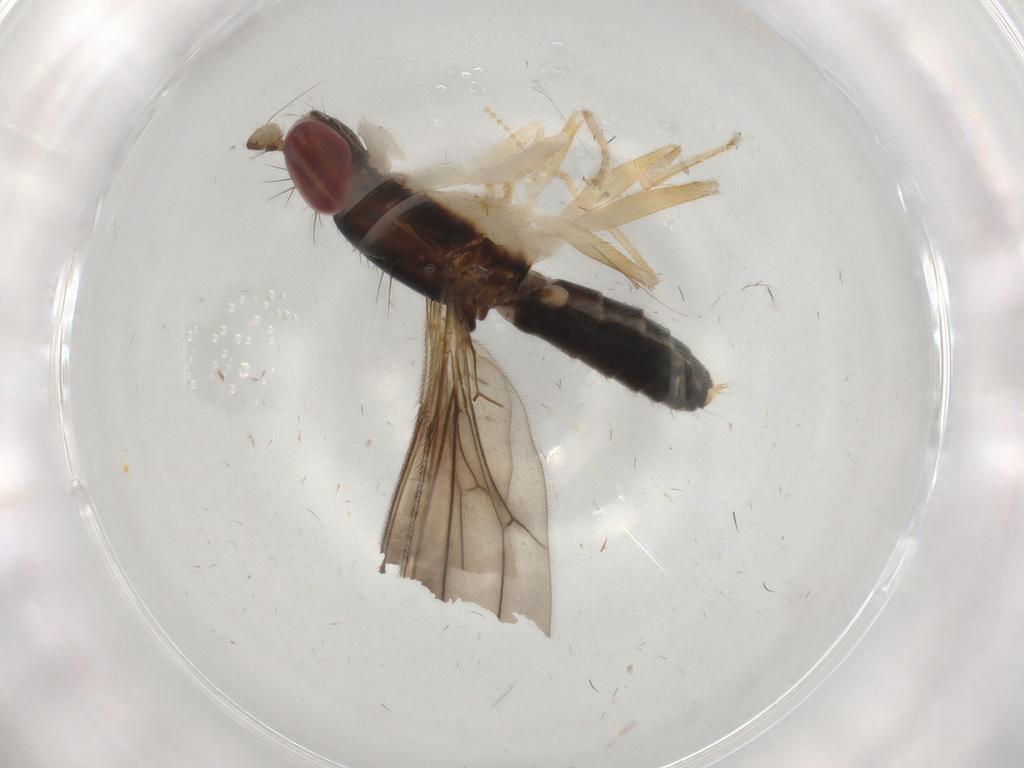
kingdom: Animalia
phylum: Arthropoda
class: Insecta
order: Diptera
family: Aulacigastridae
